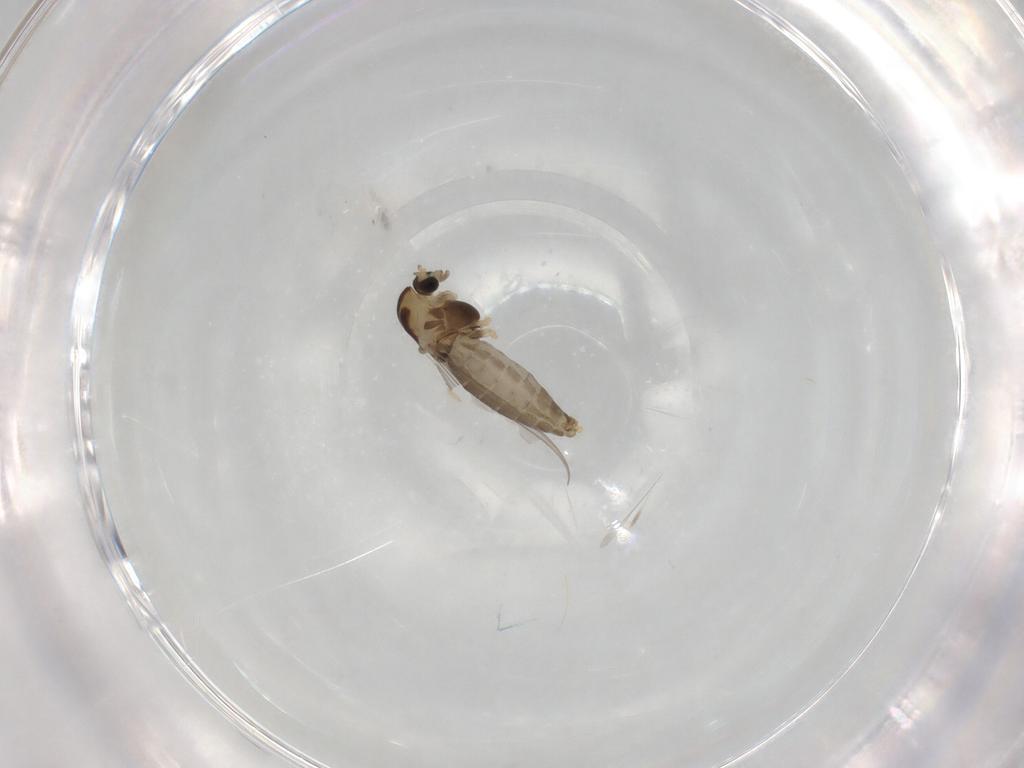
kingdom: Animalia
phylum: Arthropoda
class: Insecta
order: Diptera
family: Chironomidae
